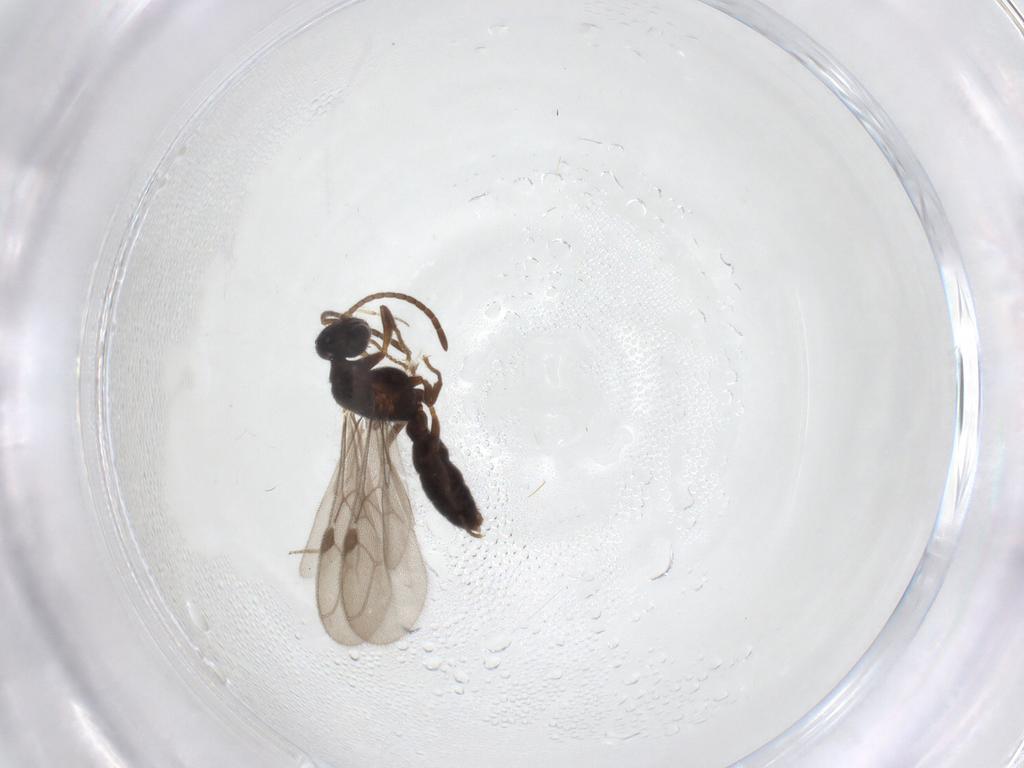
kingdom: Animalia
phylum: Arthropoda
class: Insecta
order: Hymenoptera
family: Formicidae
